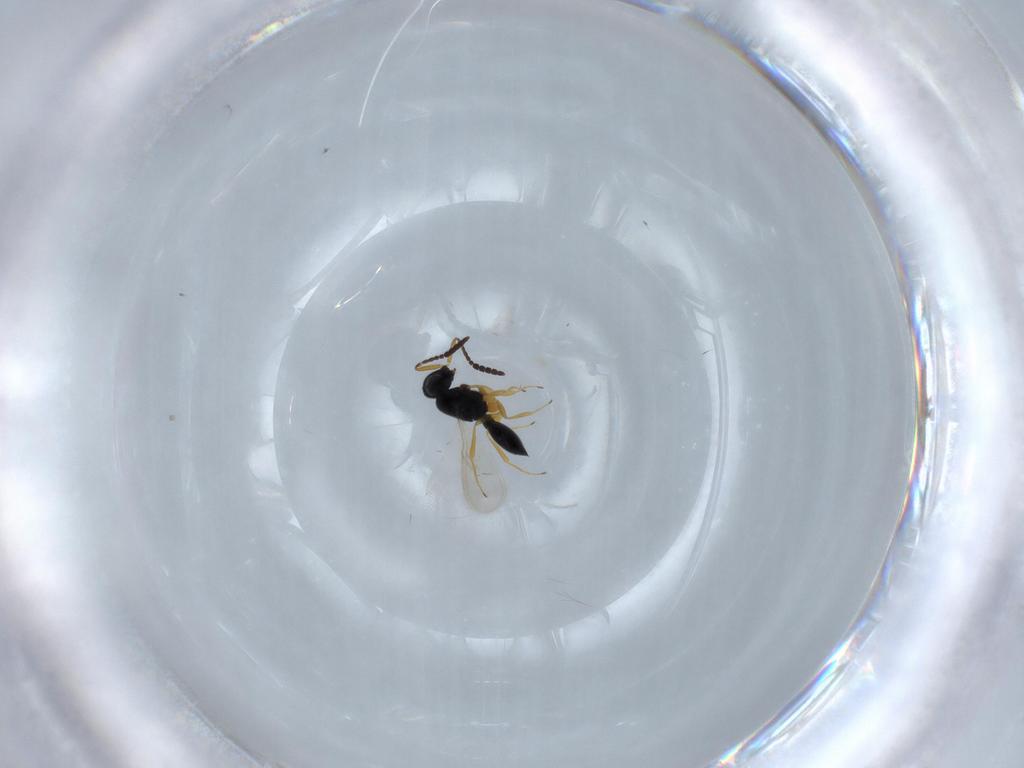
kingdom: Animalia
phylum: Arthropoda
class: Insecta
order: Hymenoptera
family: Scelionidae
